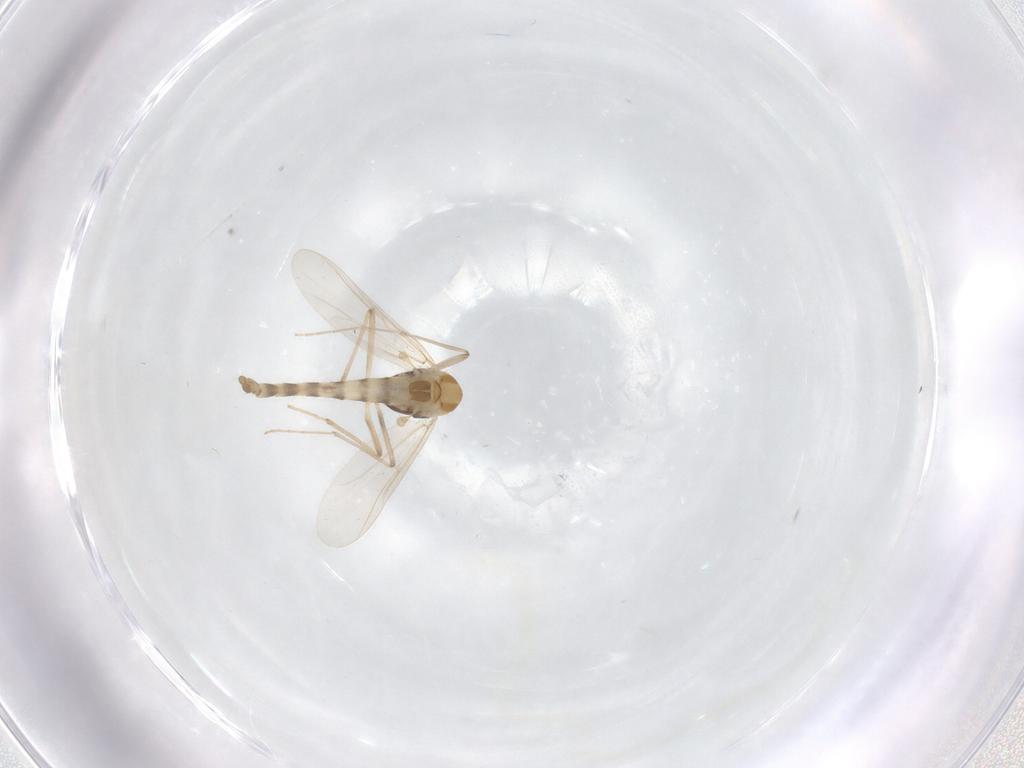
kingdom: Animalia
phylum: Arthropoda
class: Insecta
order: Diptera
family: Chironomidae
